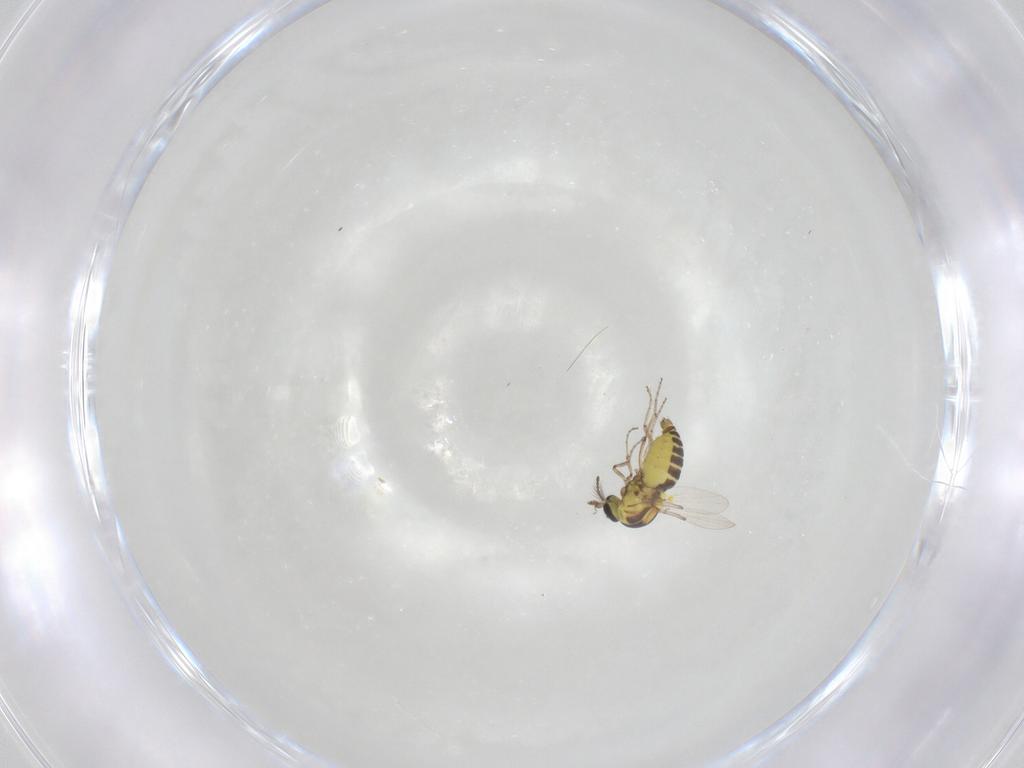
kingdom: Animalia
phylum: Arthropoda
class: Insecta
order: Diptera
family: Ceratopogonidae
